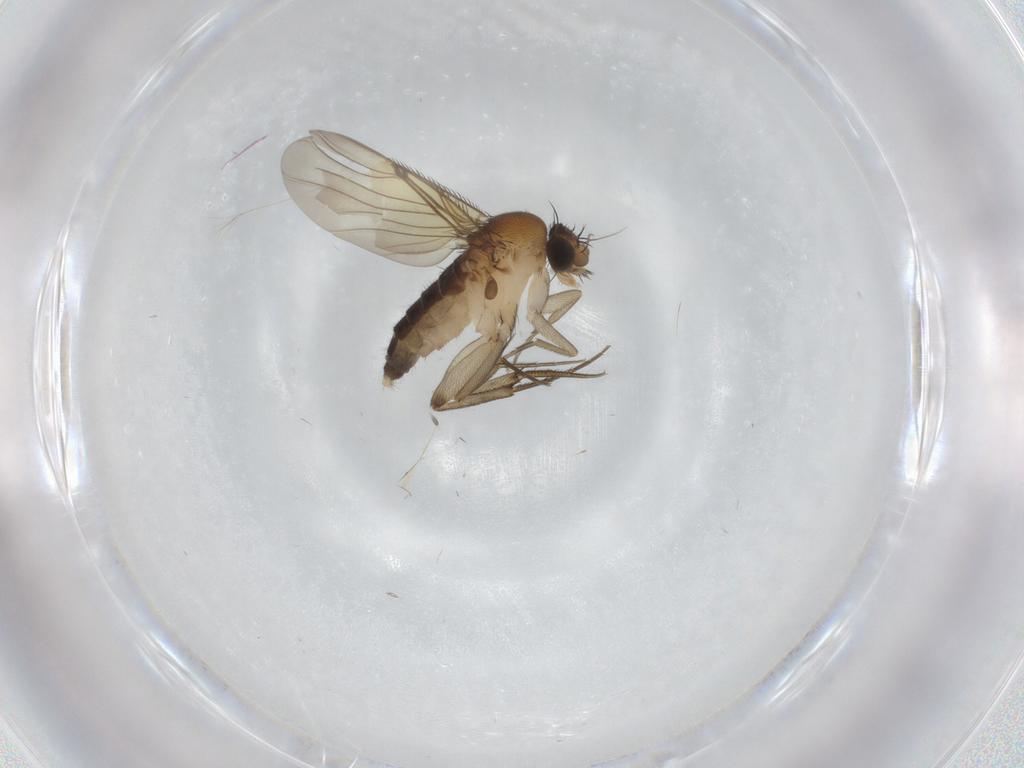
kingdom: Animalia
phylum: Arthropoda
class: Insecta
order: Diptera
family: Phoridae
